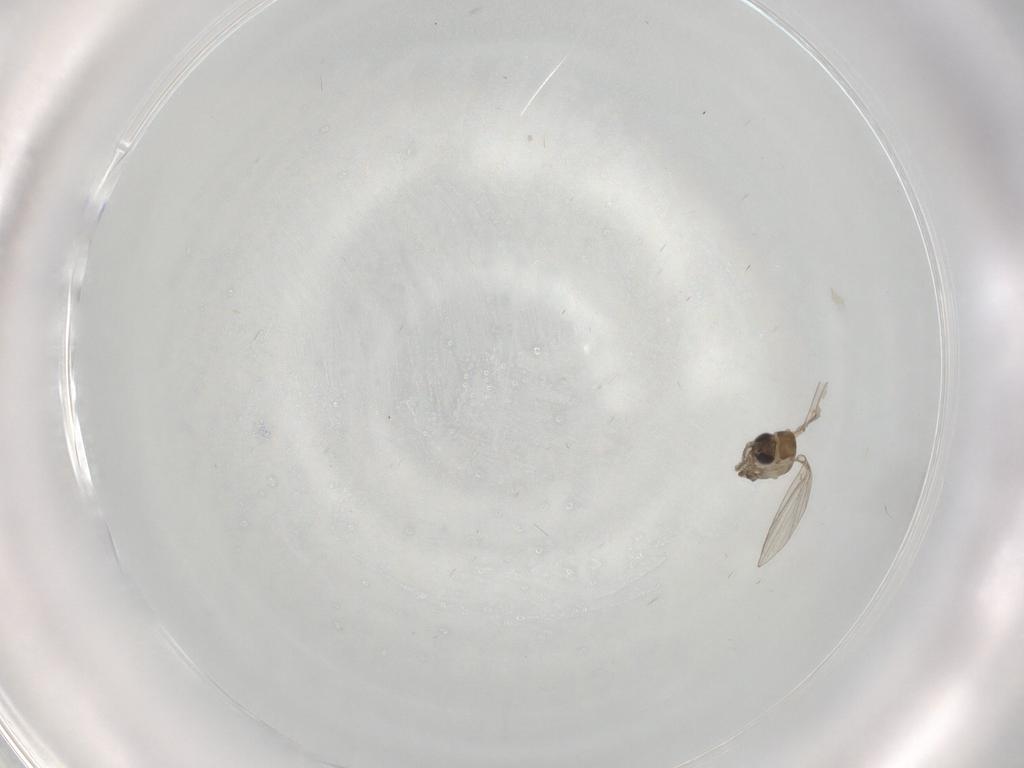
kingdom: Animalia
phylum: Arthropoda
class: Insecta
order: Diptera
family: Psychodidae
